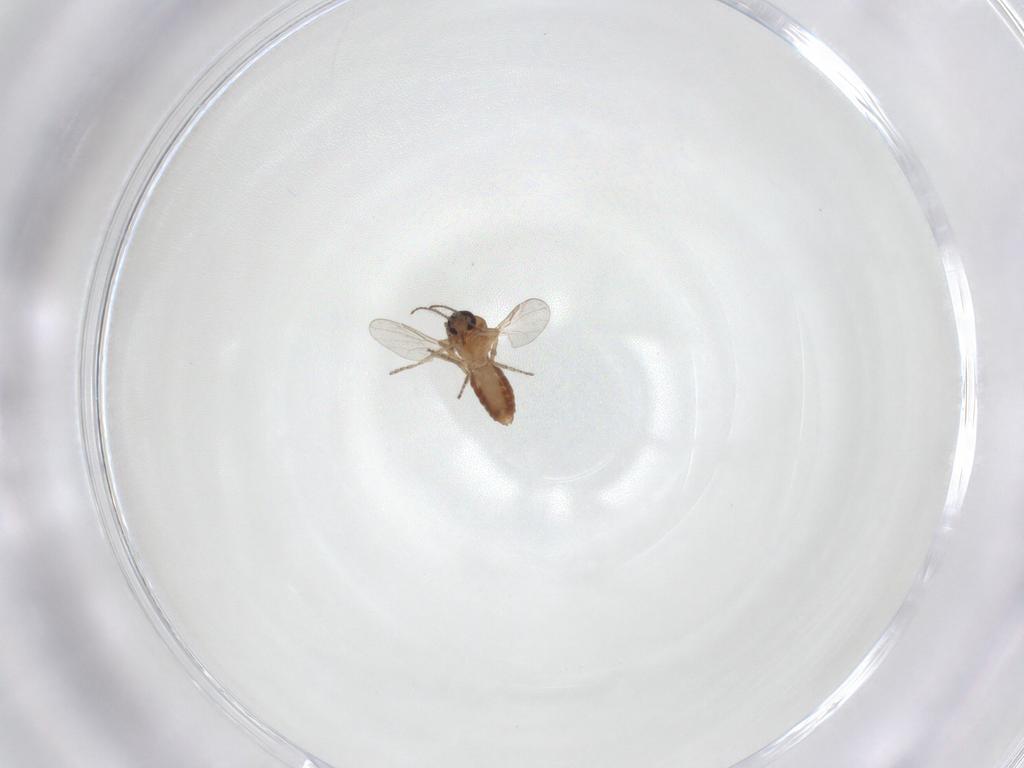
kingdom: Animalia
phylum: Arthropoda
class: Insecta
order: Diptera
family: Ceratopogonidae
